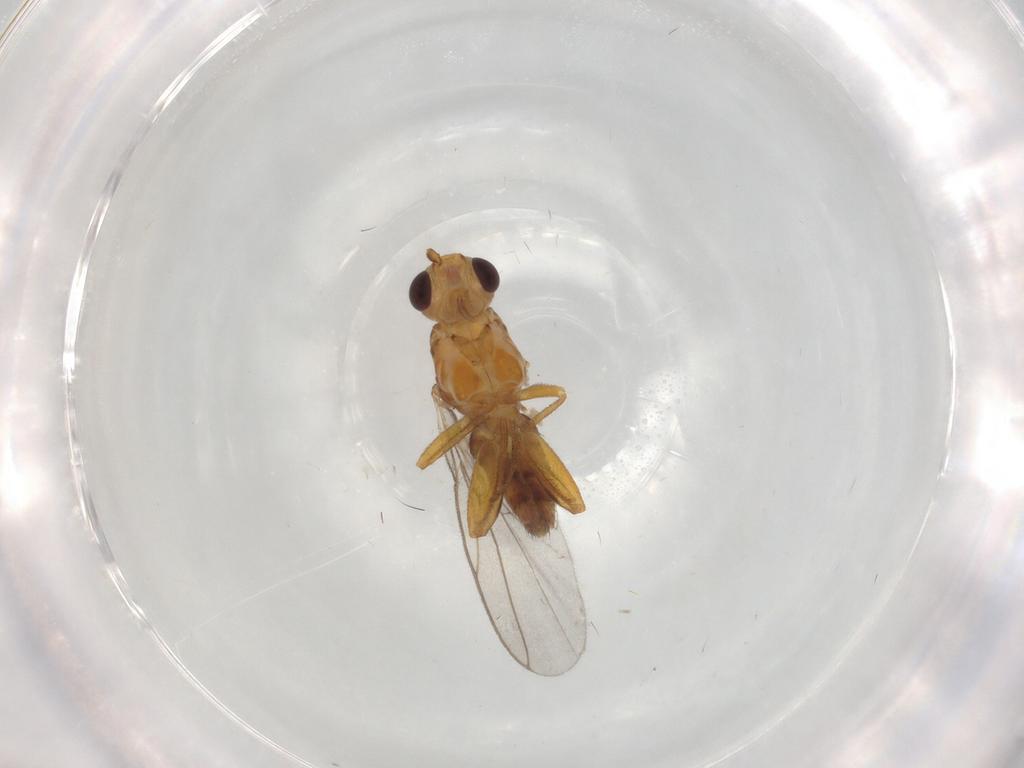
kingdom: Animalia
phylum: Arthropoda
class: Insecta
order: Diptera
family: Chloropidae
